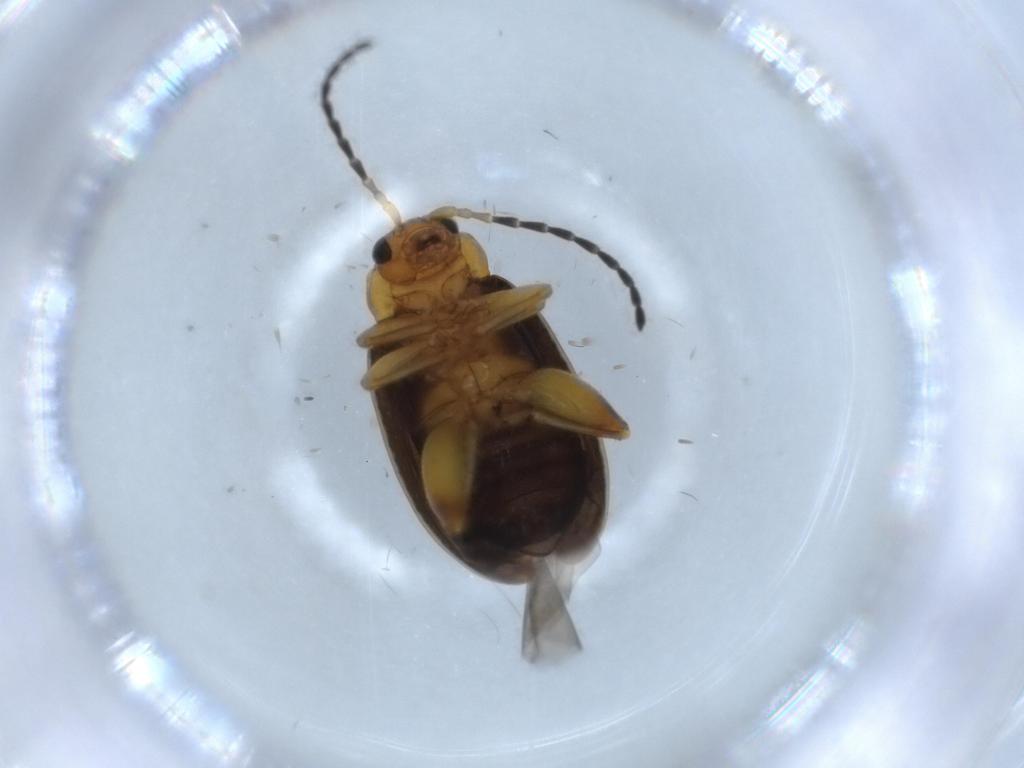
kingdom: Animalia
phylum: Arthropoda
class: Insecta
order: Coleoptera
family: Chrysomelidae
